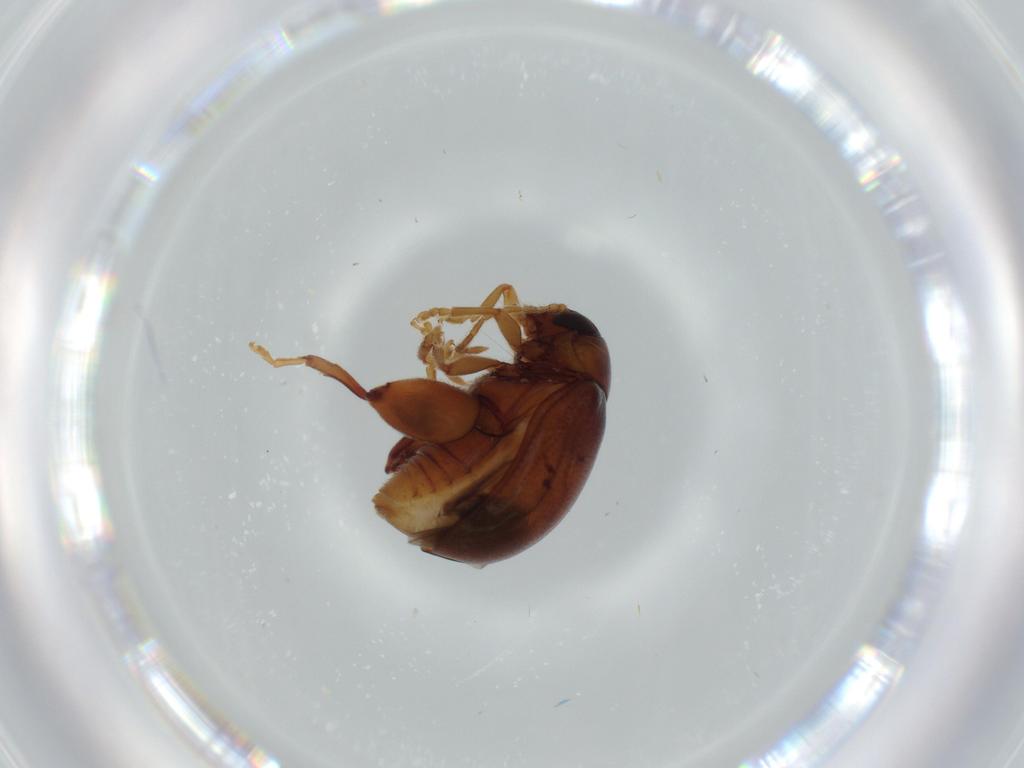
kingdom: Animalia
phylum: Arthropoda
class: Insecta
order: Coleoptera
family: Chrysomelidae
